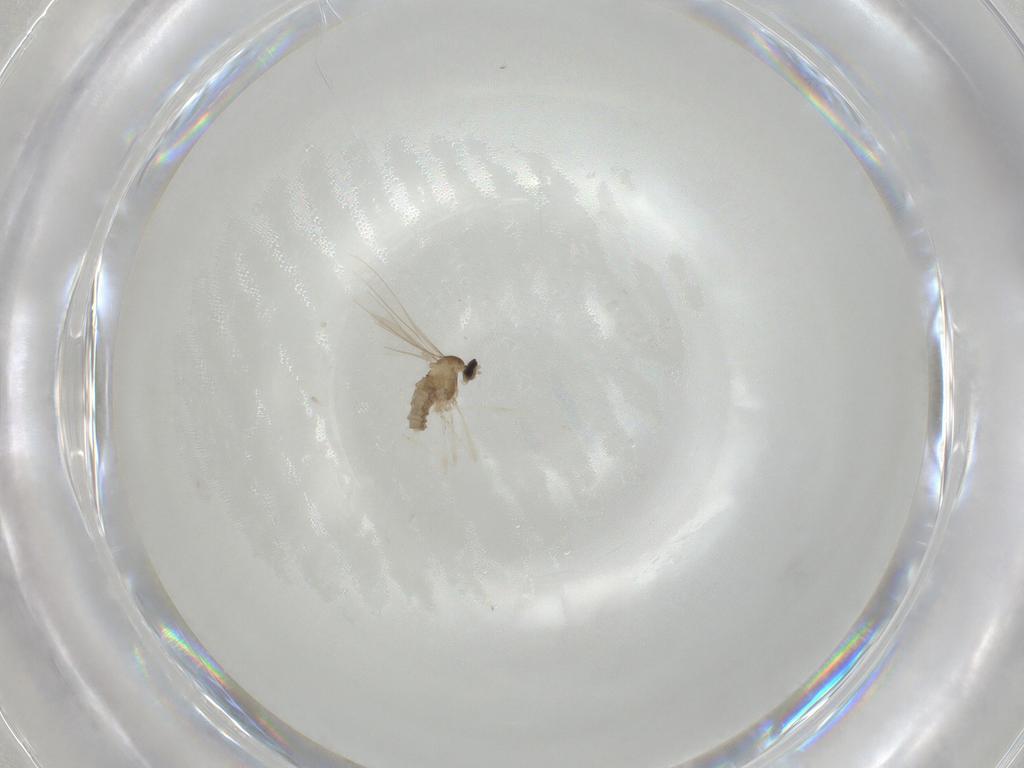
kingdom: Animalia
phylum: Arthropoda
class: Insecta
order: Diptera
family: Cecidomyiidae
